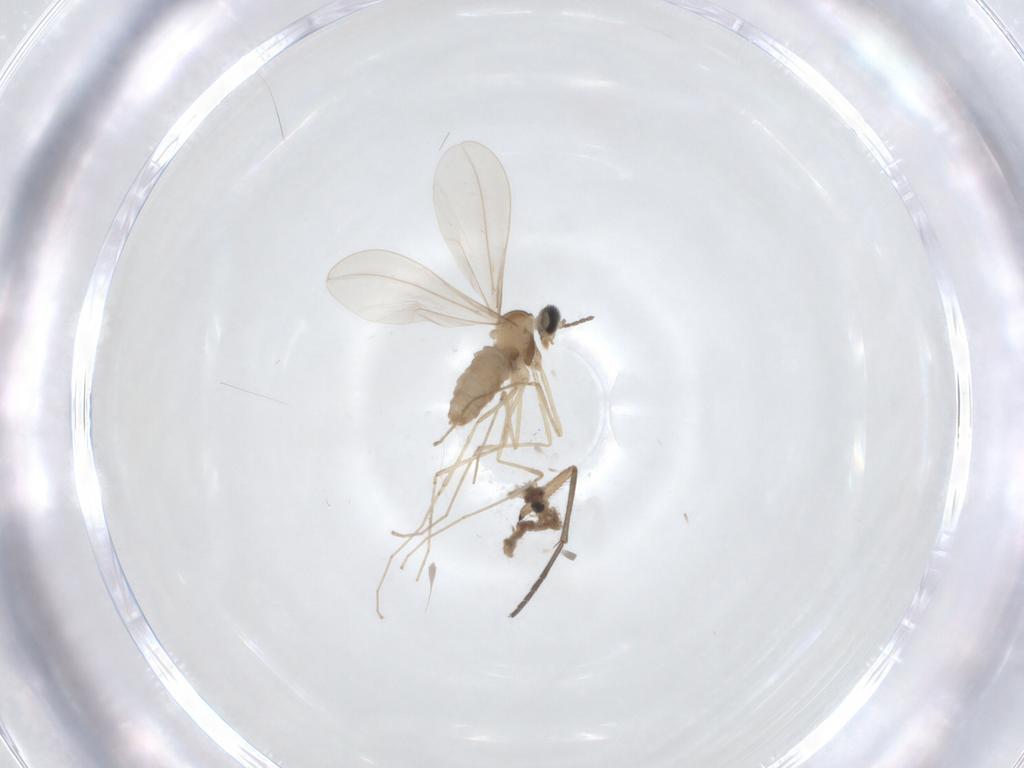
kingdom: Animalia
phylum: Arthropoda
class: Insecta
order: Diptera
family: Cecidomyiidae
